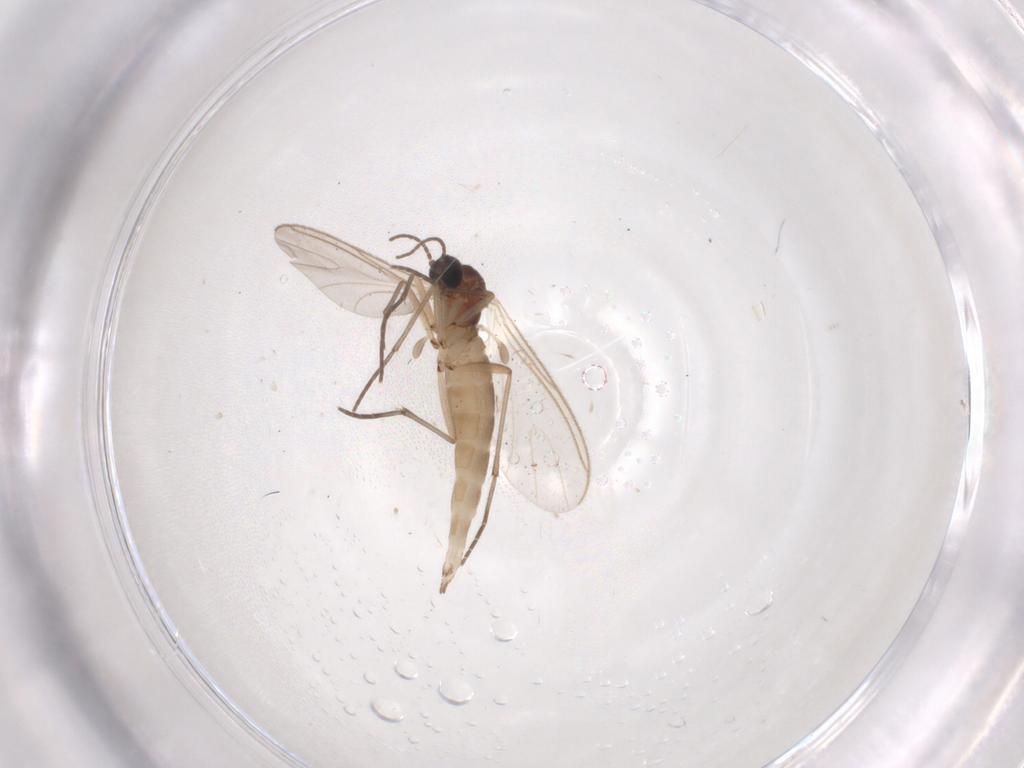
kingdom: Animalia
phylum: Arthropoda
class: Insecta
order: Diptera
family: Sciaridae
